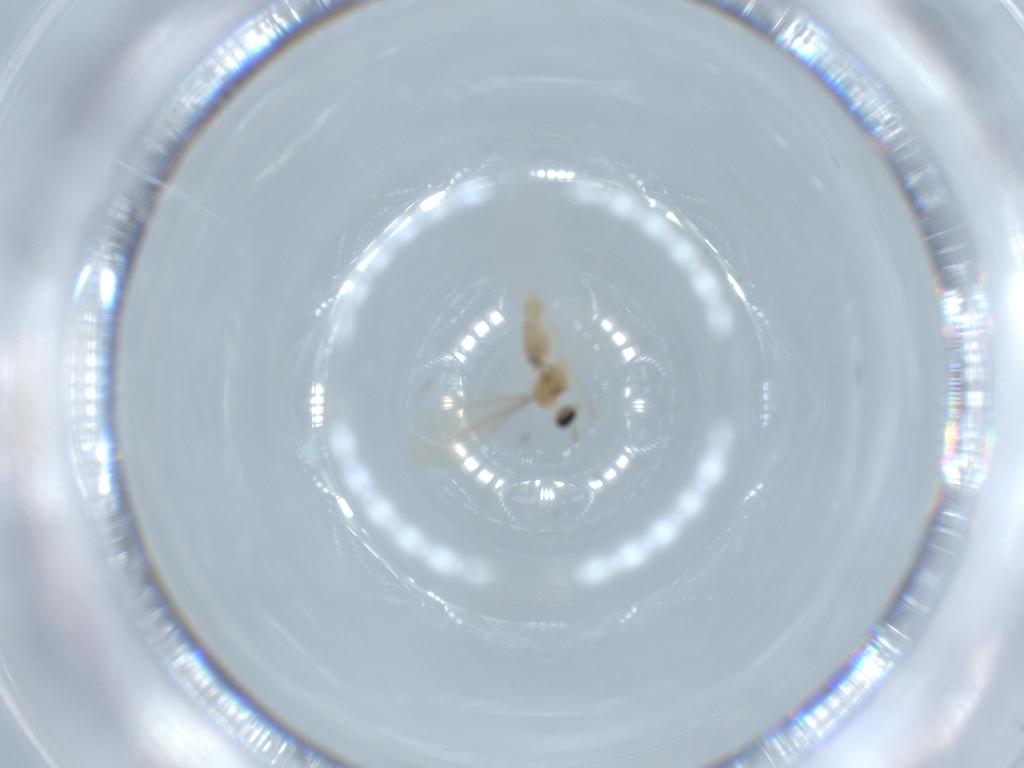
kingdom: Animalia
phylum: Arthropoda
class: Insecta
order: Diptera
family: Cecidomyiidae
